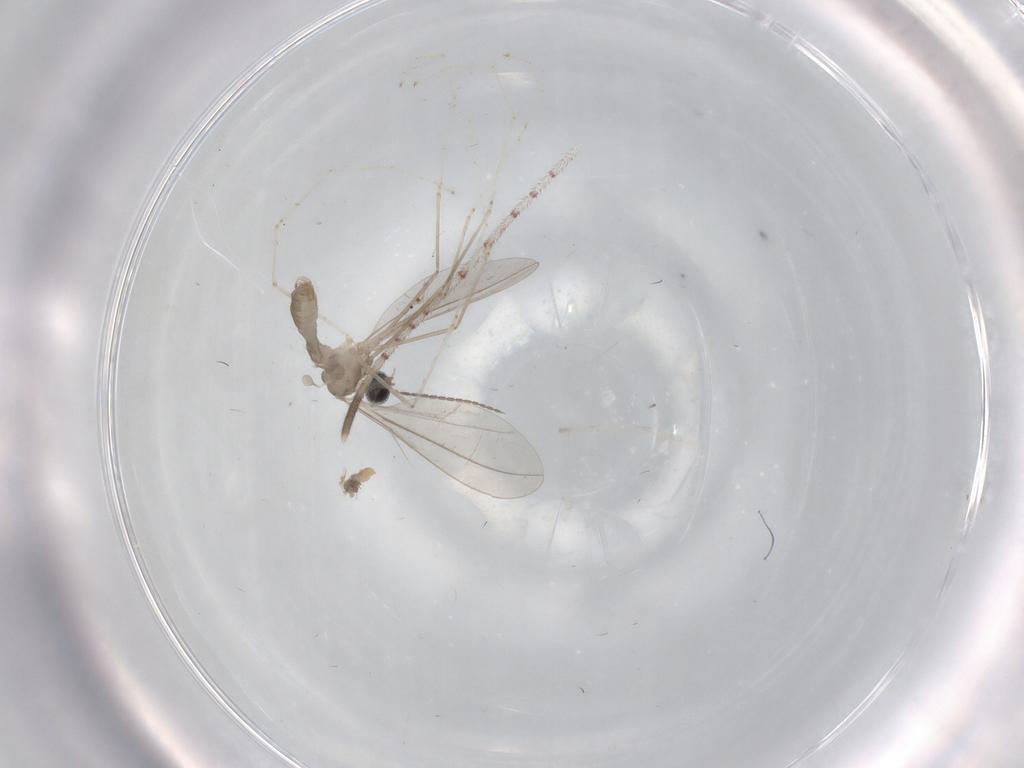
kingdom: Animalia
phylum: Arthropoda
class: Insecta
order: Diptera
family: Cecidomyiidae
